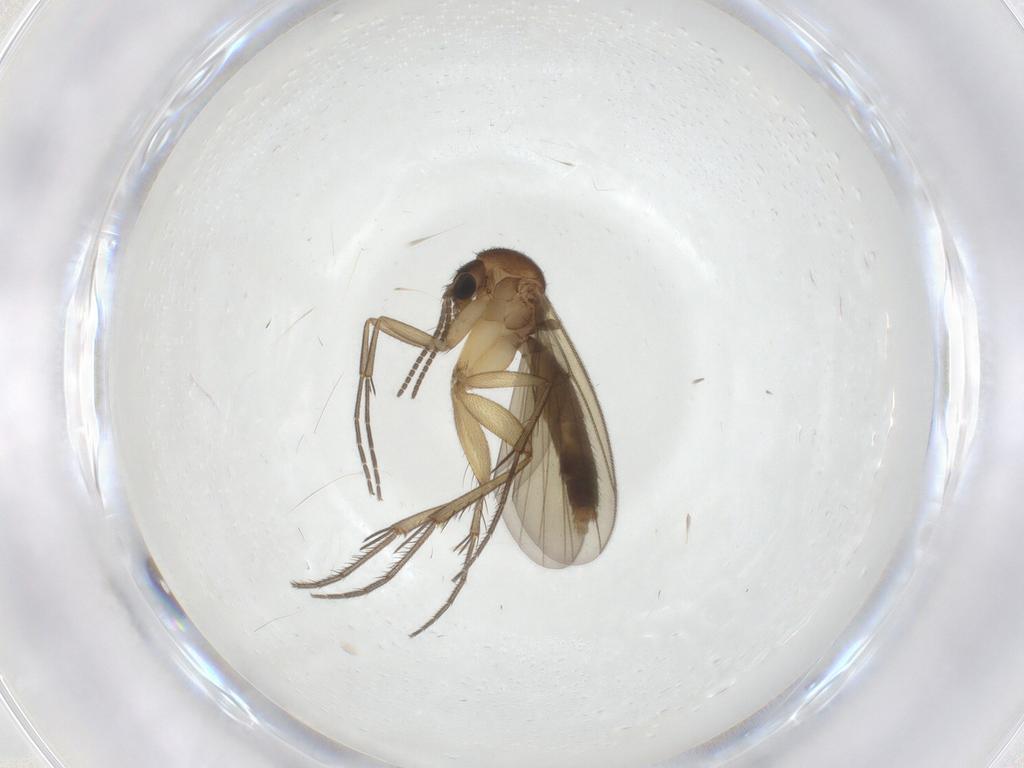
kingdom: Animalia
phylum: Arthropoda
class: Insecta
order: Diptera
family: Mycetophilidae
